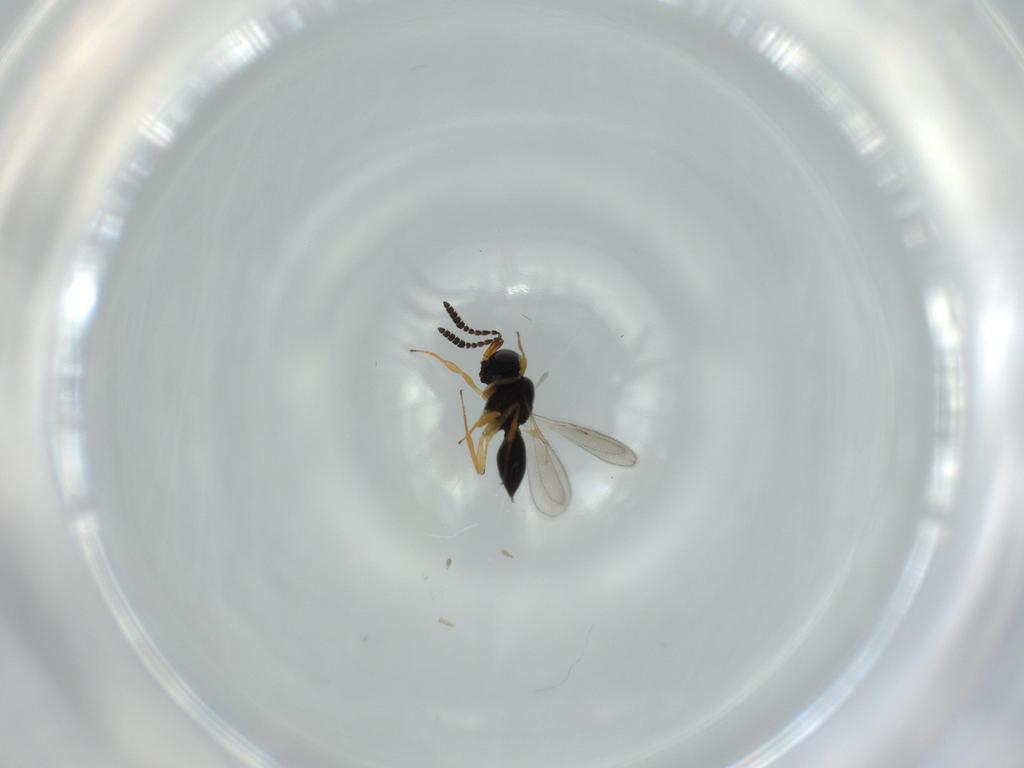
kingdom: Animalia
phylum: Arthropoda
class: Insecta
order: Hymenoptera
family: Scelionidae
